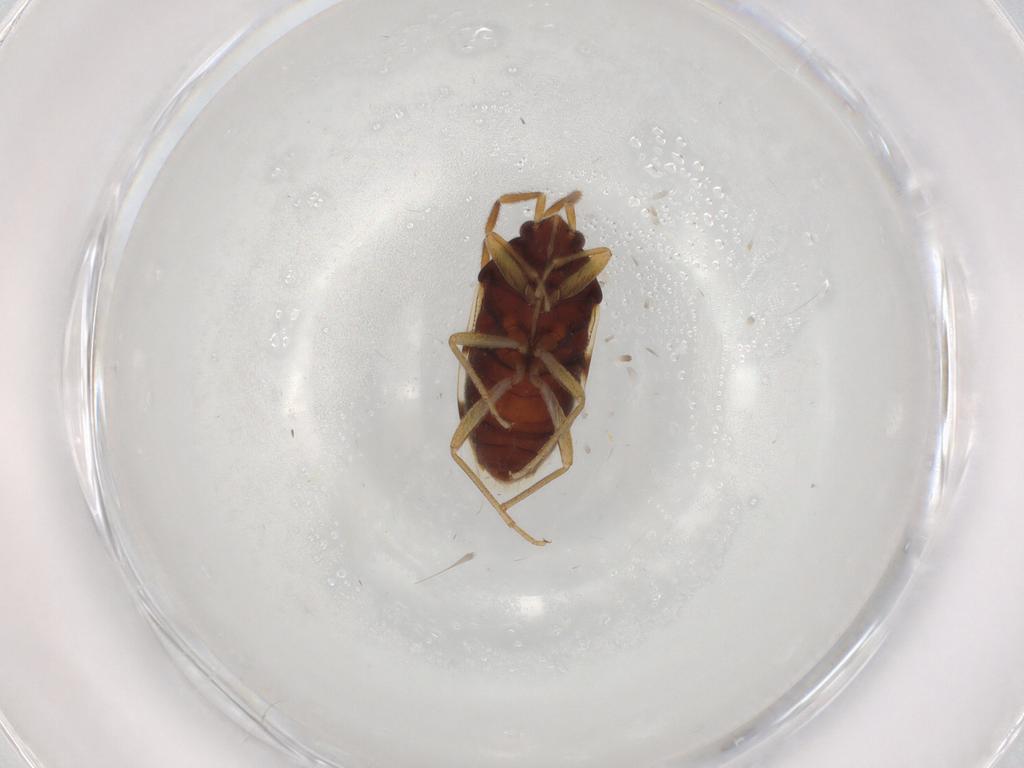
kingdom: Animalia
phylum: Arthropoda
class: Insecta
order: Hemiptera
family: Rhyparochromidae
